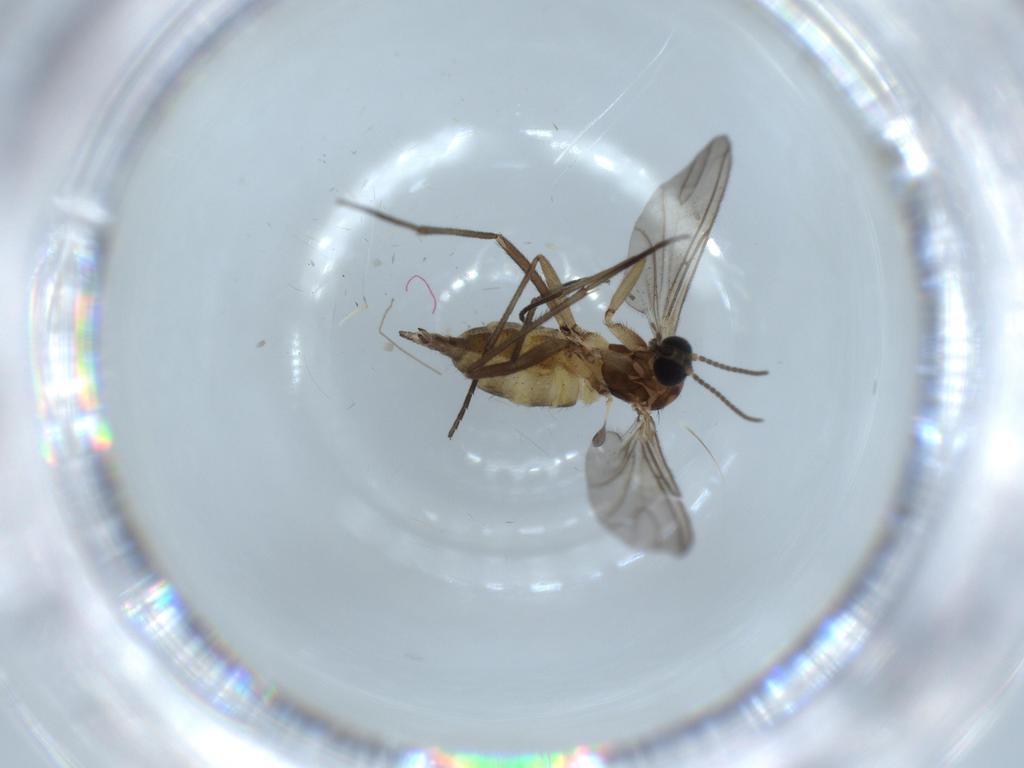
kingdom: Animalia
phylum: Arthropoda
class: Insecta
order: Diptera
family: Sciaridae
